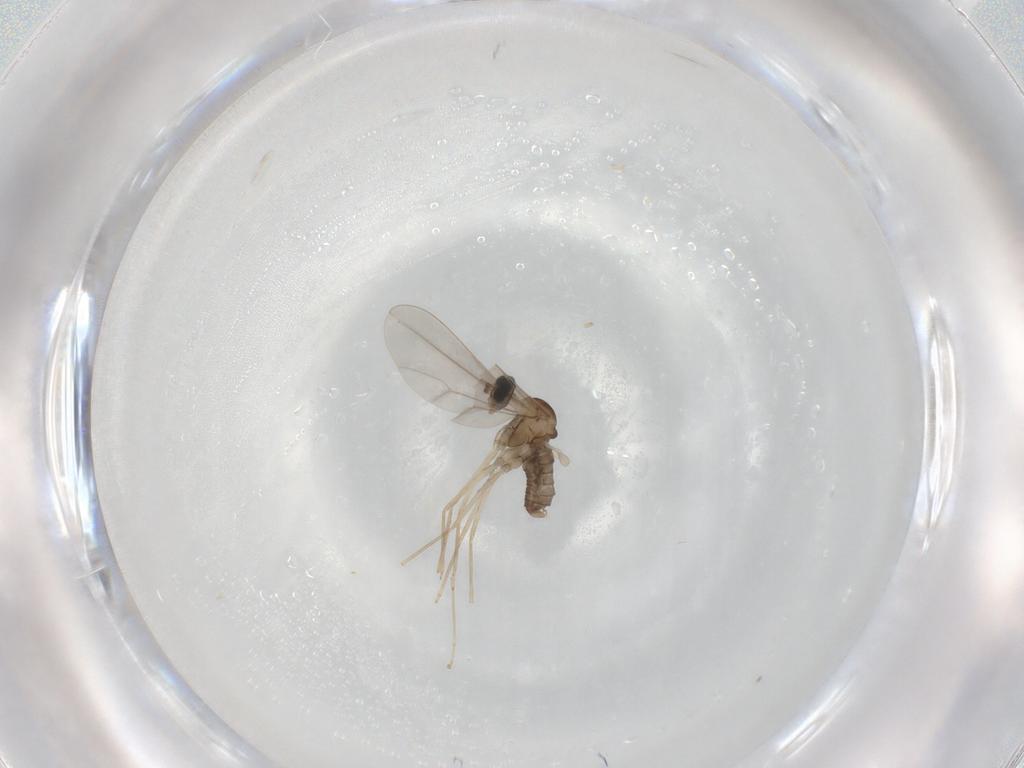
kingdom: Animalia
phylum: Arthropoda
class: Insecta
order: Diptera
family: Cecidomyiidae
